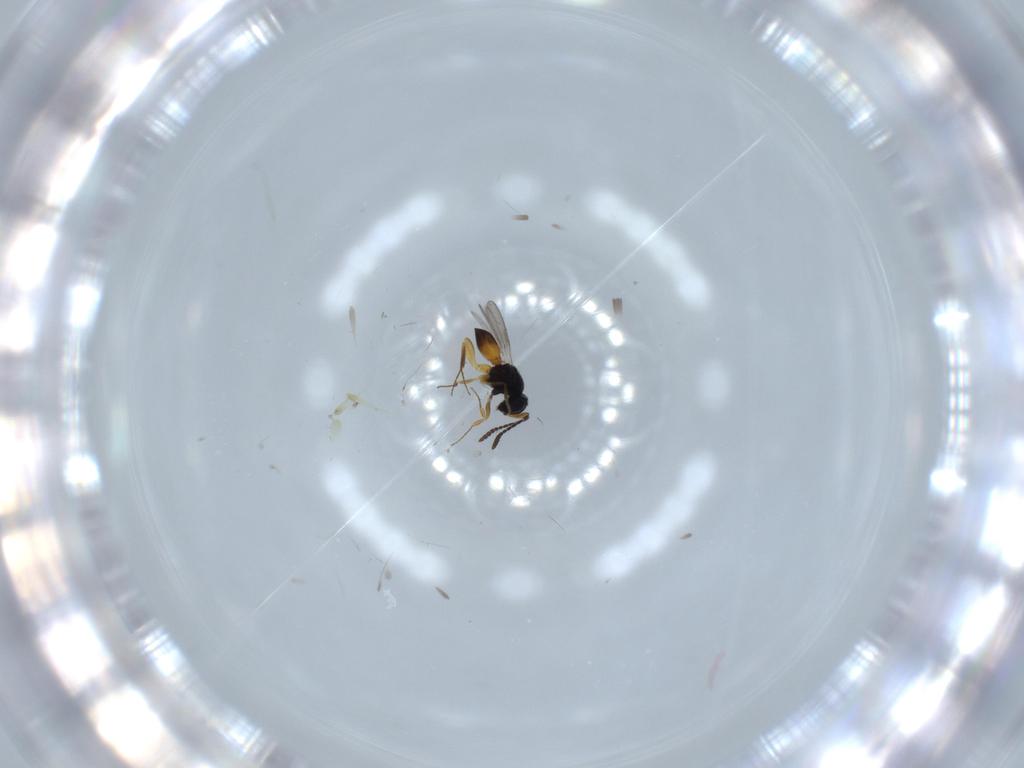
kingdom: Animalia
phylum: Arthropoda
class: Insecta
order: Hymenoptera
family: Scelionidae
